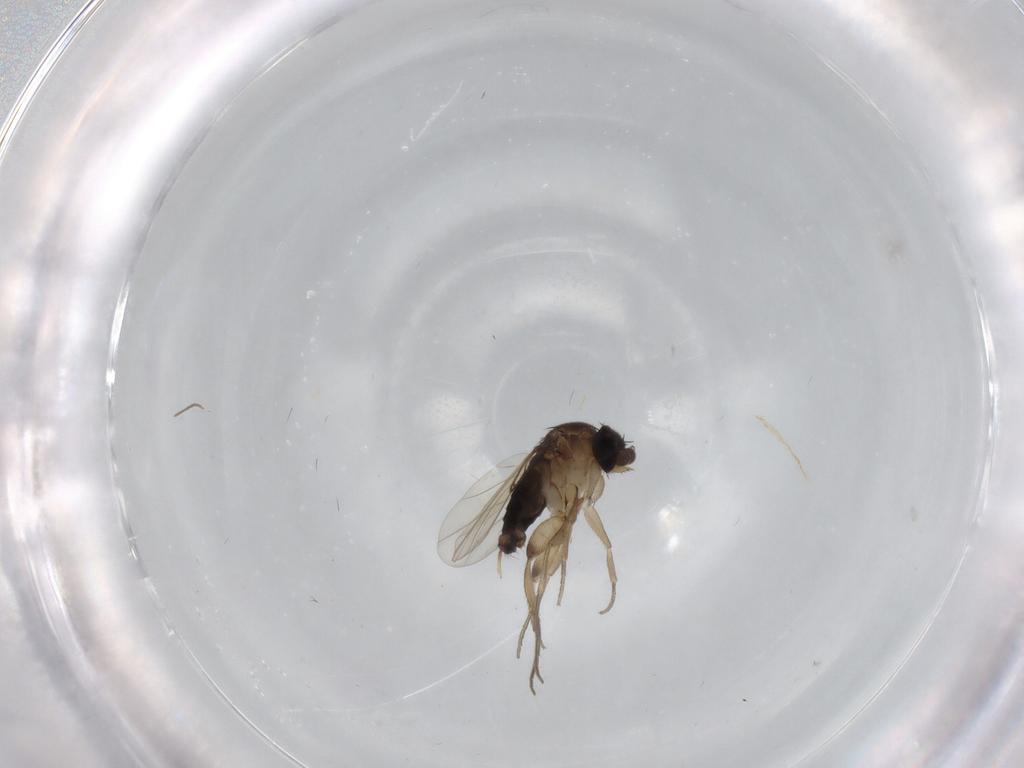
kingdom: Animalia
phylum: Arthropoda
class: Insecta
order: Diptera
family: Phoridae
